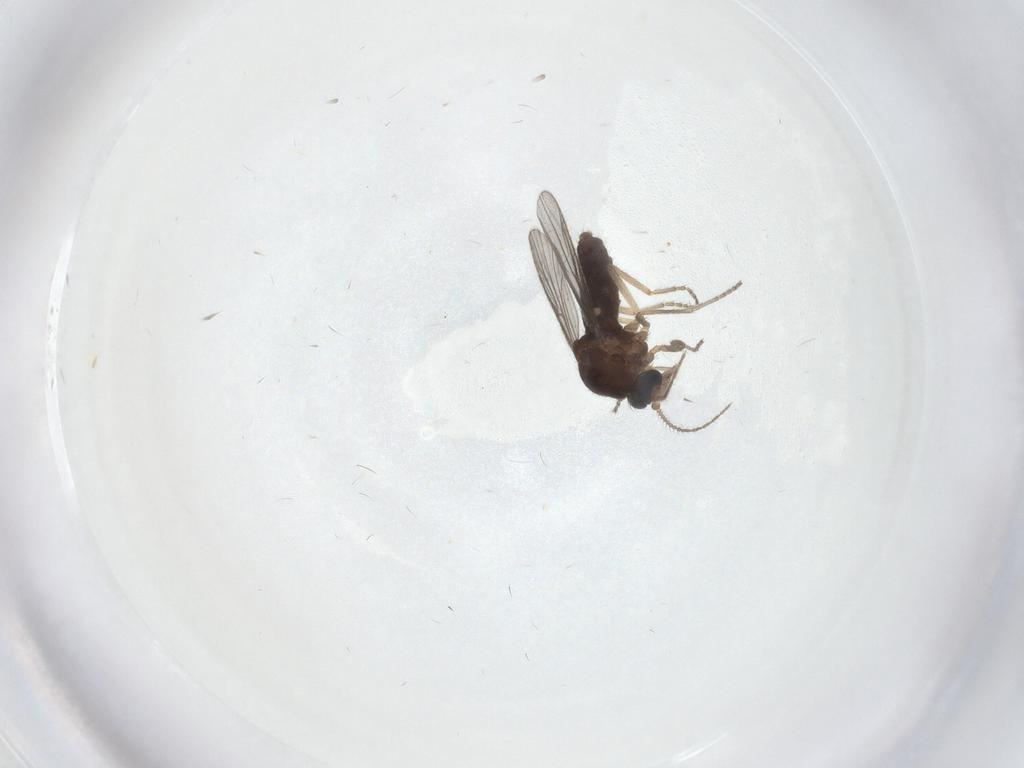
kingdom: Animalia
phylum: Arthropoda
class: Insecta
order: Diptera
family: Ceratopogonidae
